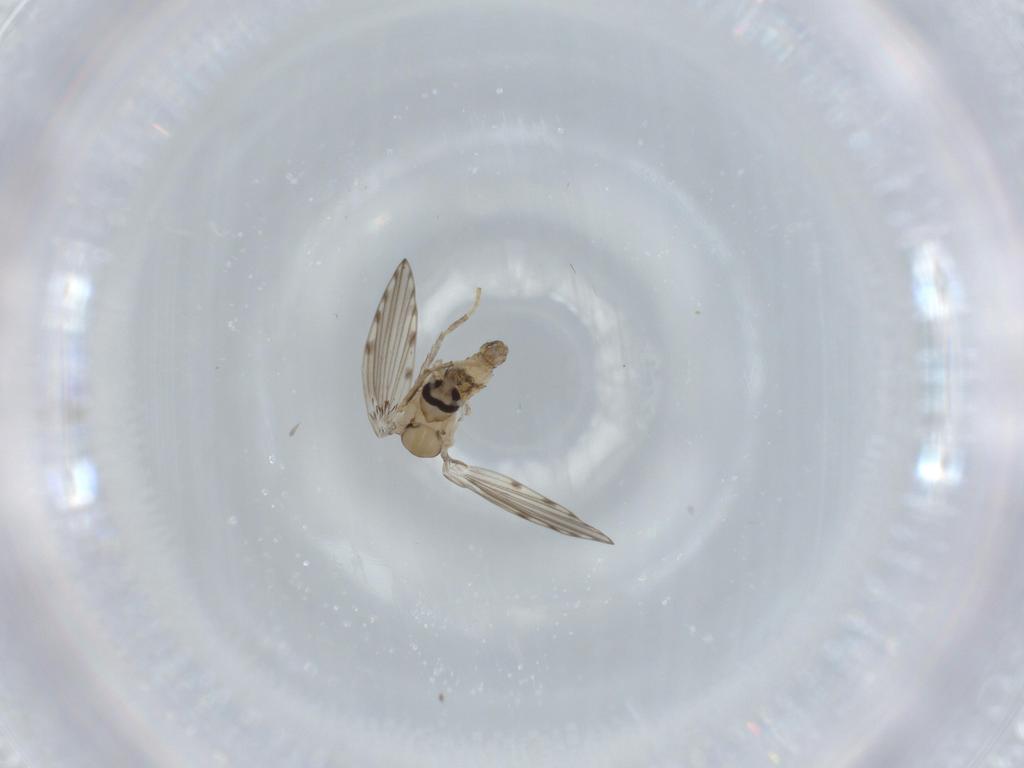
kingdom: Animalia
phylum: Arthropoda
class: Insecta
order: Diptera
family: Psychodidae
